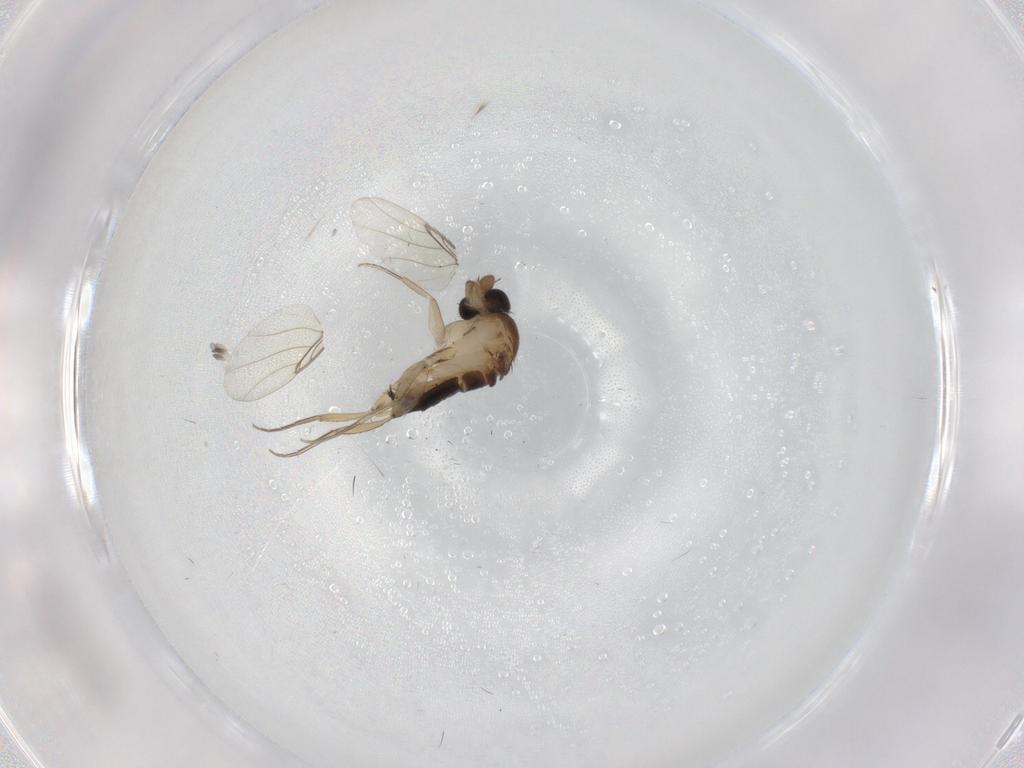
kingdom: Animalia
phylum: Arthropoda
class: Insecta
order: Diptera
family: Phoridae
